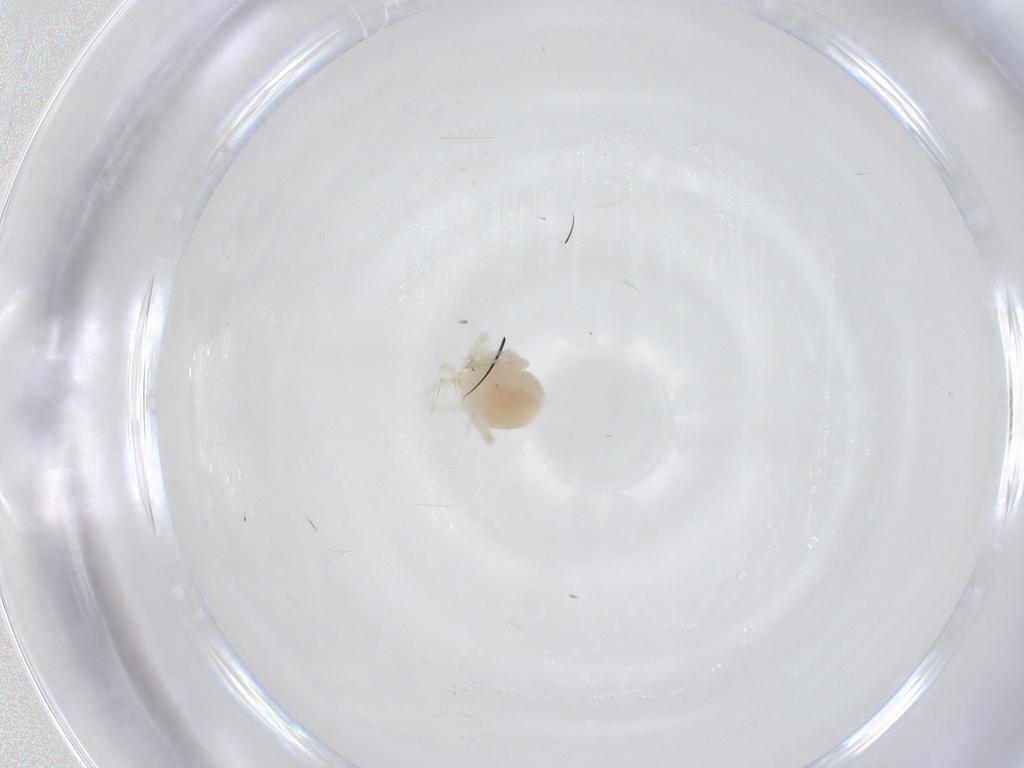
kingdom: Animalia
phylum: Arthropoda
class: Arachnida
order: Trombidiformes
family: Anystidae
